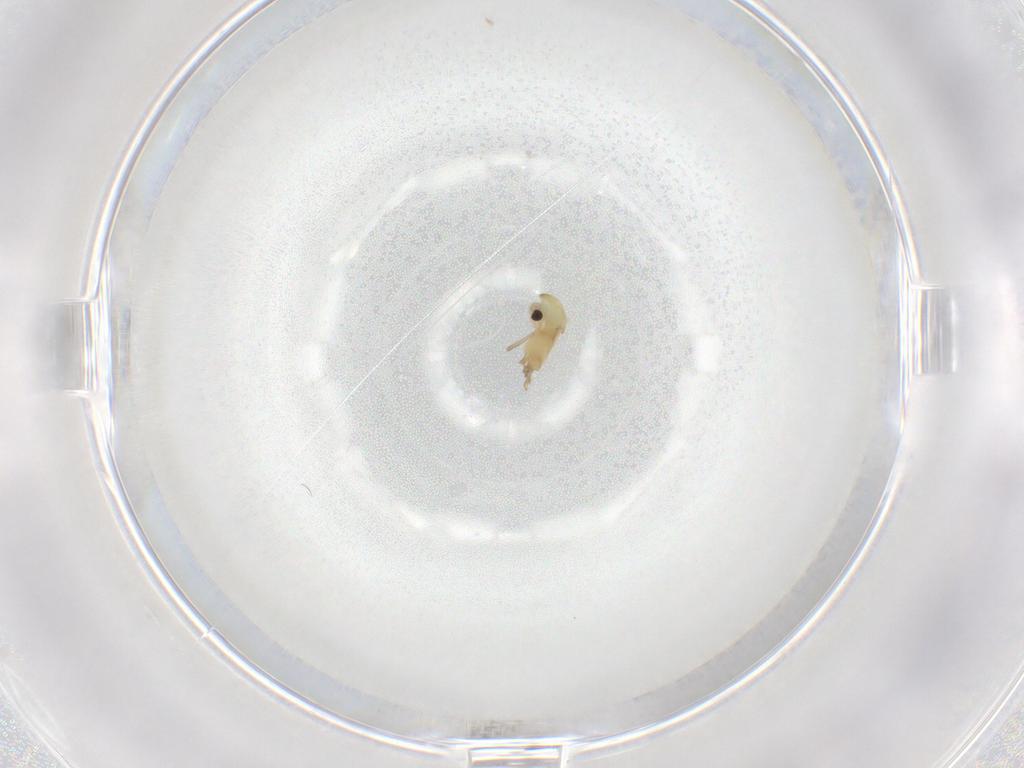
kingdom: Animalia
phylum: Arthropoda
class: Insecta
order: Diptera
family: Chironomidae
